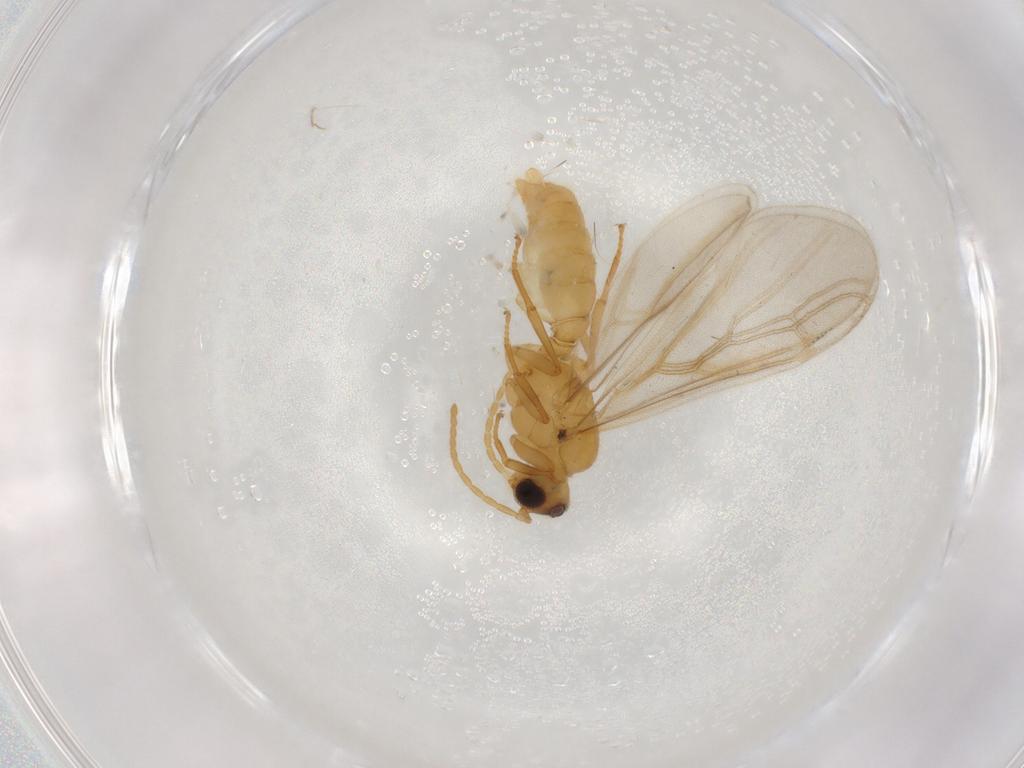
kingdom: Animalia
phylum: Arthropoda
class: Insecta
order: Hymenoptera
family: Formicidae
